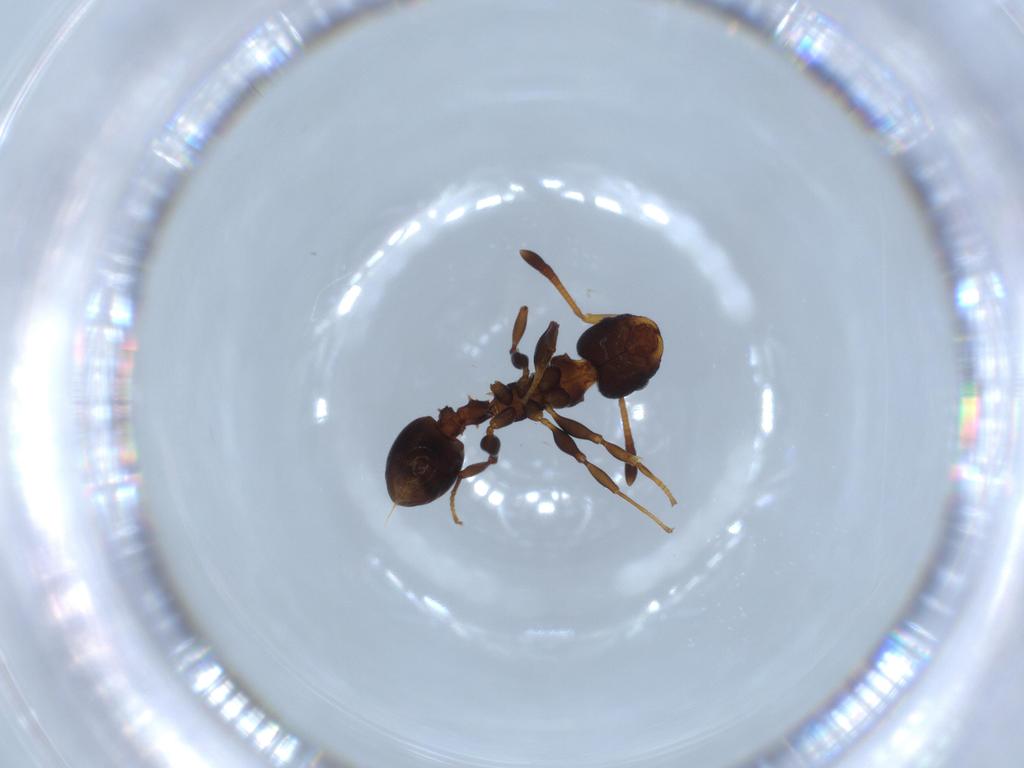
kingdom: Animalia
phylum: Arthropoda
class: Insecta
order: Hymenoptera
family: Formicidae
